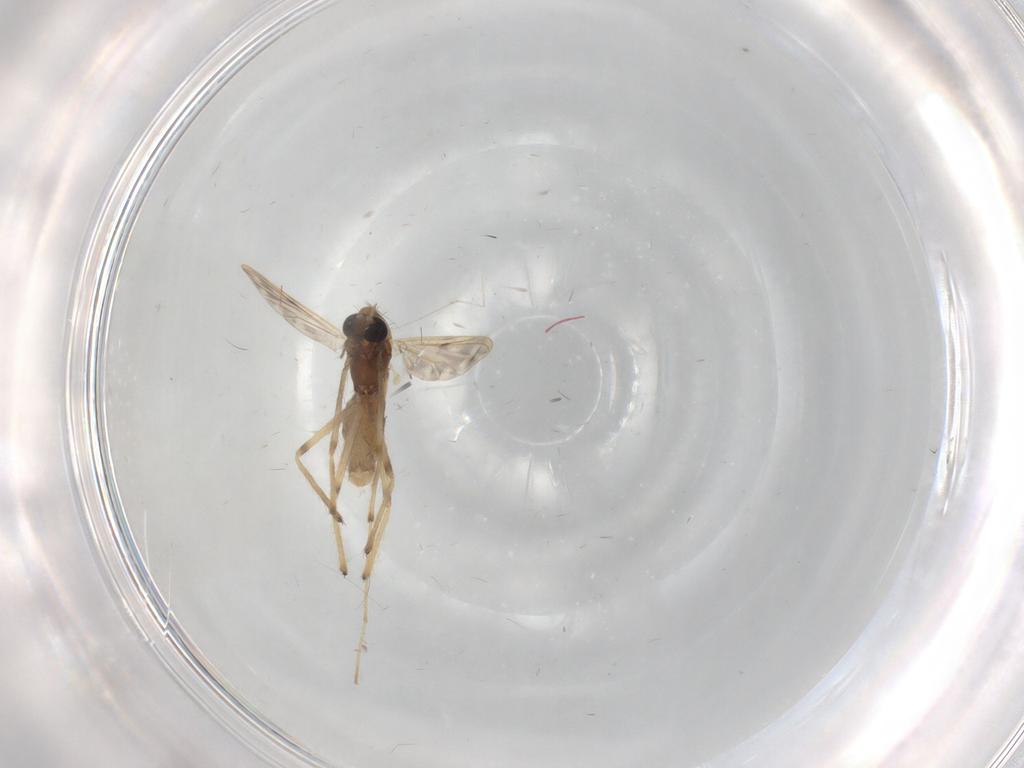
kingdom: Animalia
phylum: Arthropoda
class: Insecta
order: Diptera
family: Chironomidae
